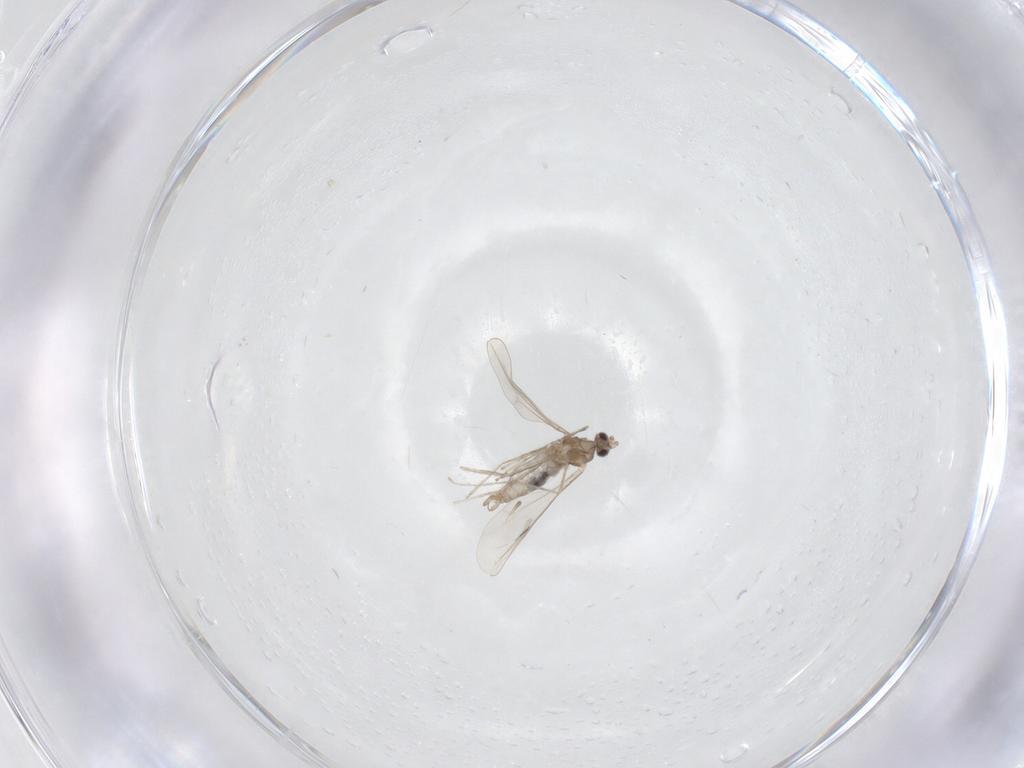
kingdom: Animalia
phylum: Arthropoda
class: Insecta
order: Diptera
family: Cecidomyiidae
